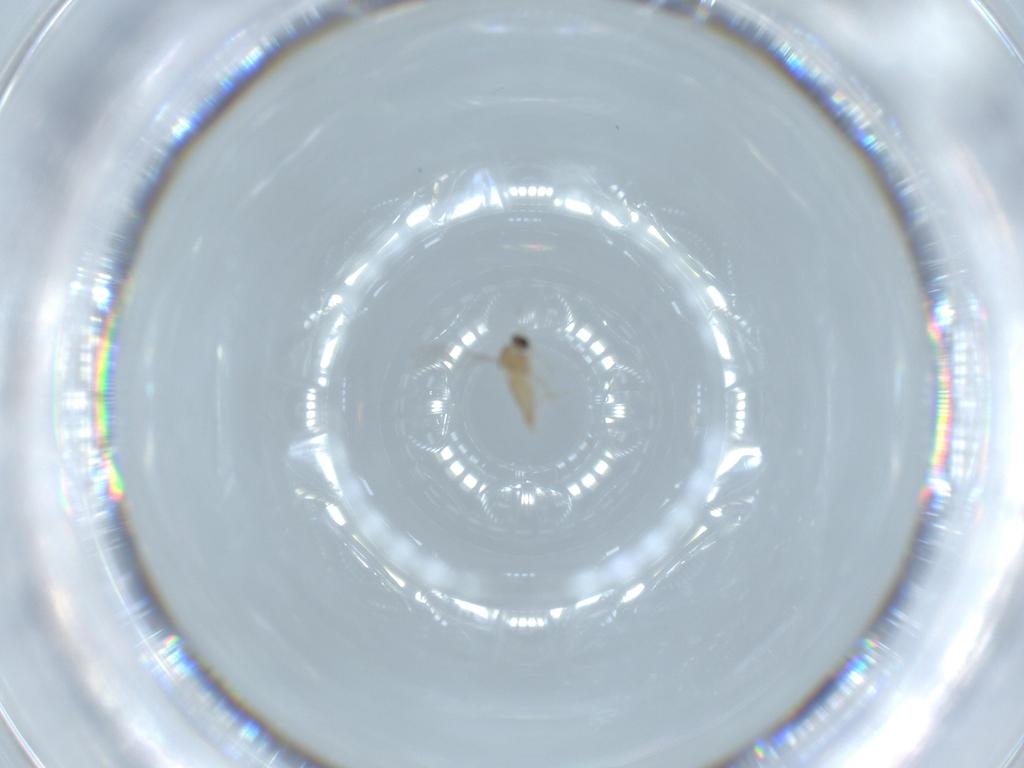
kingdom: Animalia
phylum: Arthropoda
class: Insecta
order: Diptera
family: Cecidomyiidae
